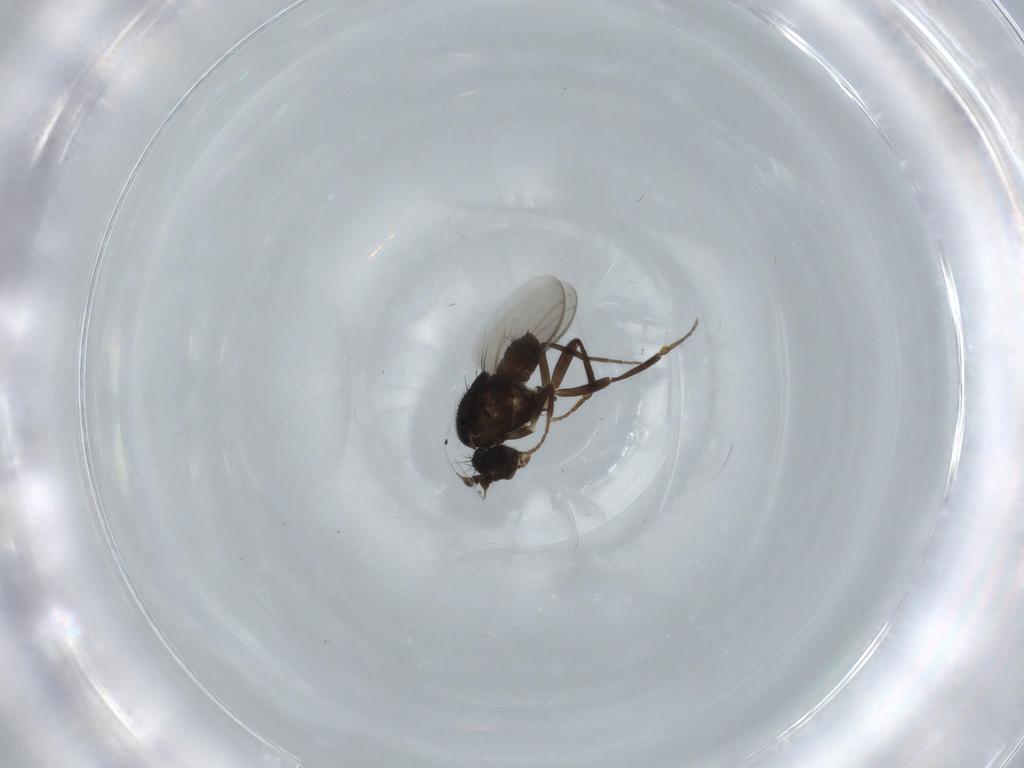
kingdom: Animalia
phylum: Arthropoda
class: Insecta
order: Diptera
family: Sphaeroceridae
